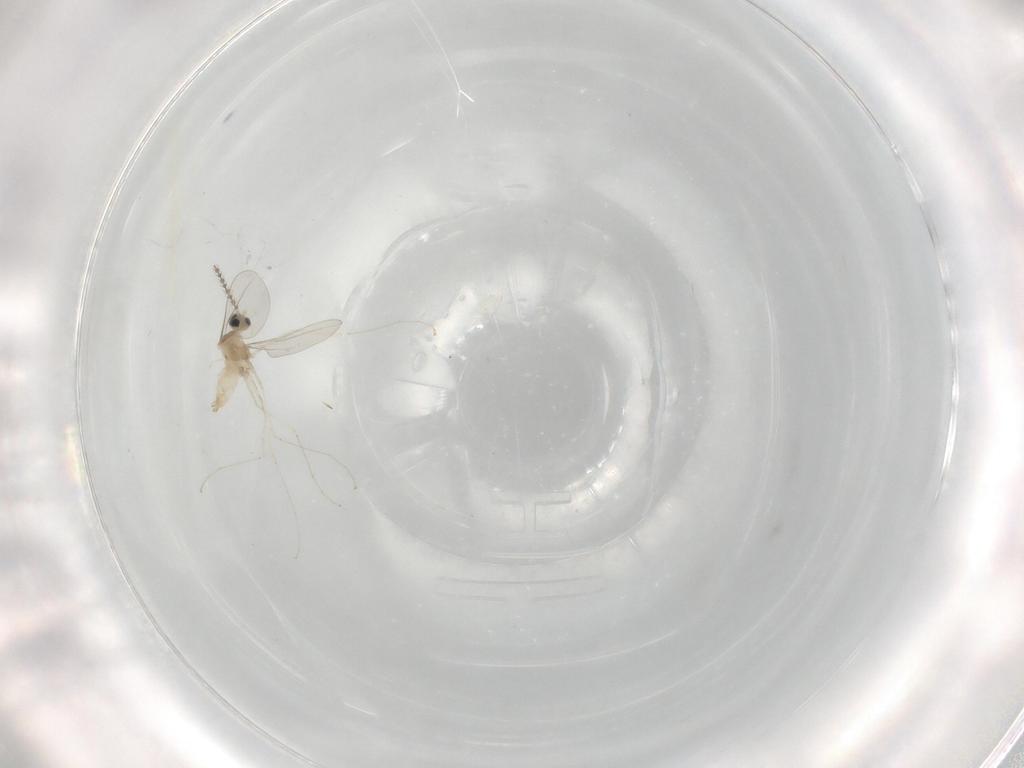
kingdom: Animalia
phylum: Arthropoda
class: Insecta
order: Diptera
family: Cecidomyiidae
